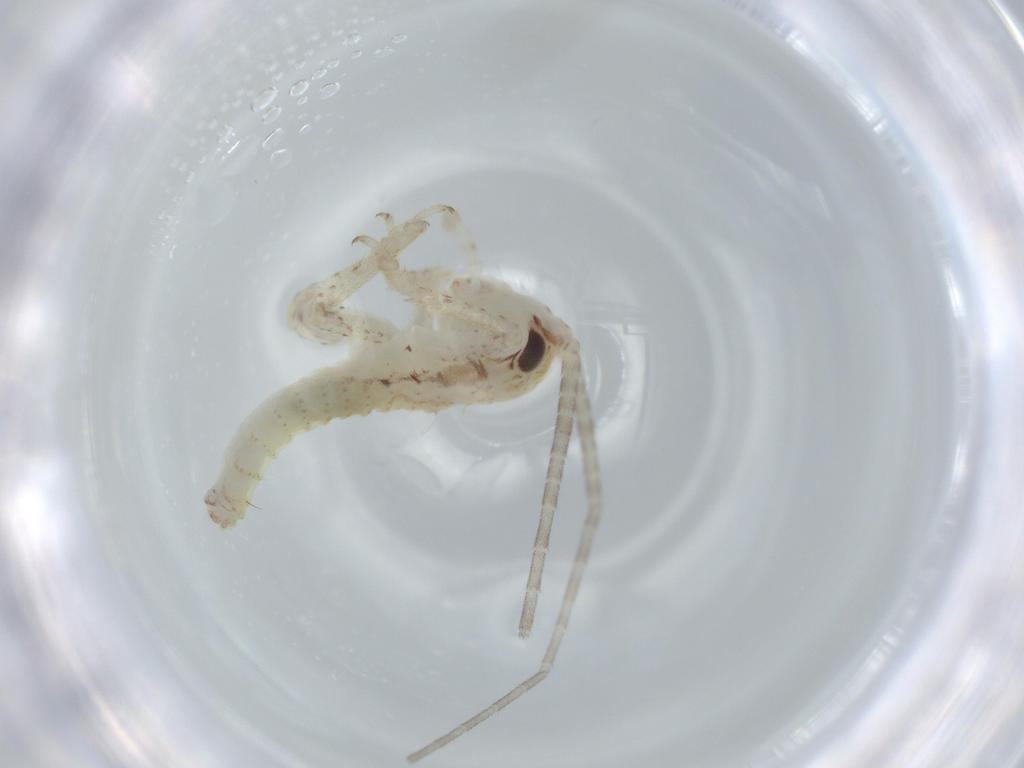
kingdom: Animalia
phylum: Arthropoda
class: Insecta
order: Orthoptera
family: Gryllidae
